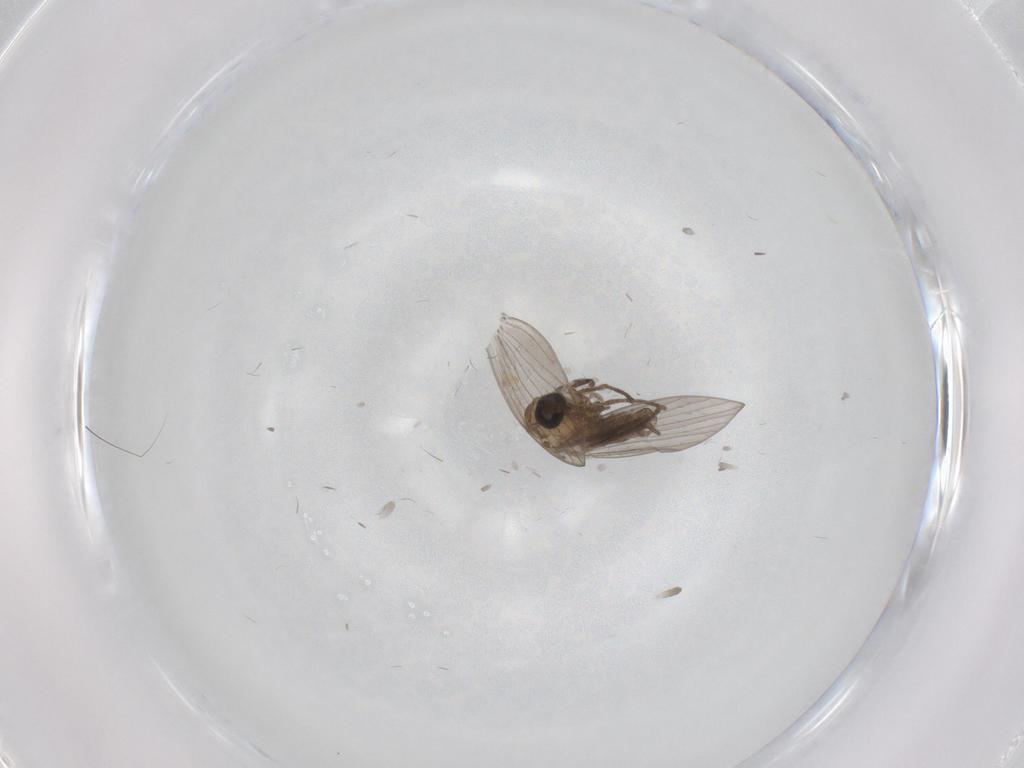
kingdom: Animalia
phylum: Arthropoda
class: Insecta
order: Diptera
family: Psychodidae
